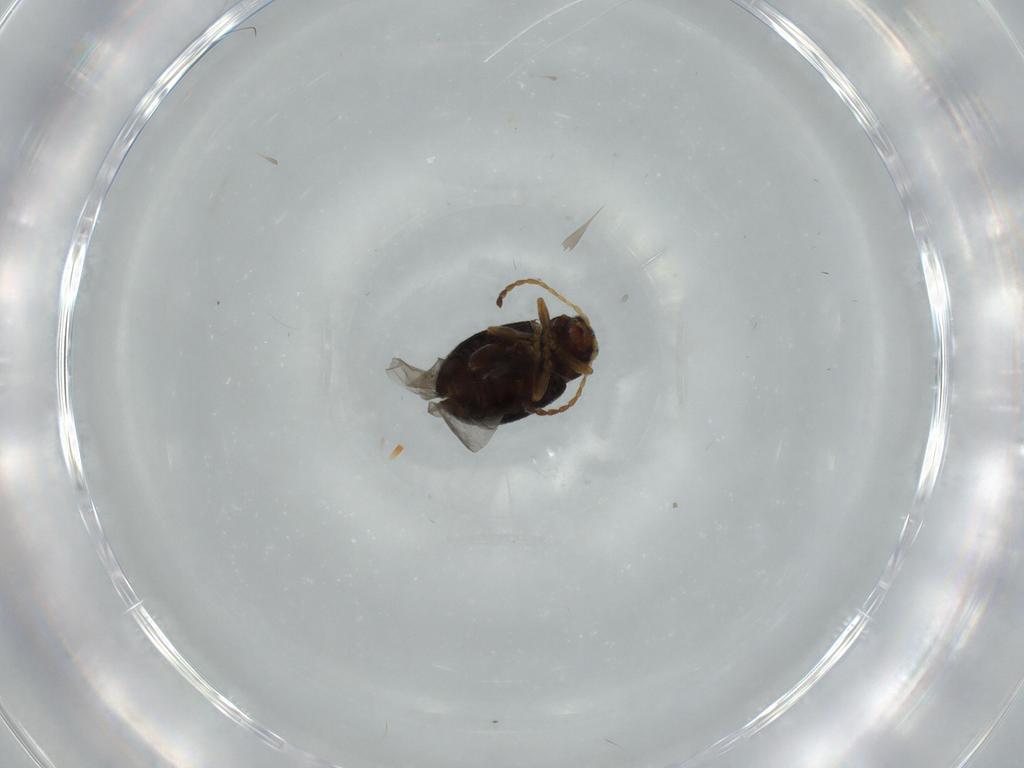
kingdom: Animalia
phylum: Arthropoda
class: Insecta
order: Coleoptera
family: Chrysomelidae
